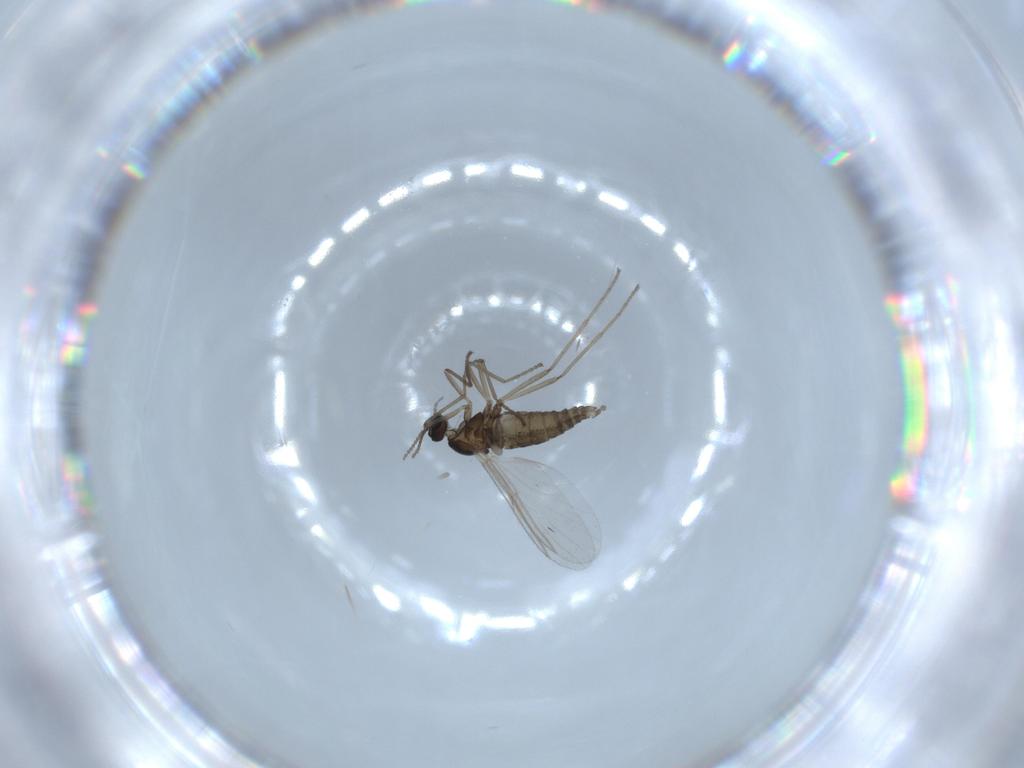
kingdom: Animalia
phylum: Arthropoda
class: Insecta
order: Diptera
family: Cecidomyiidae
